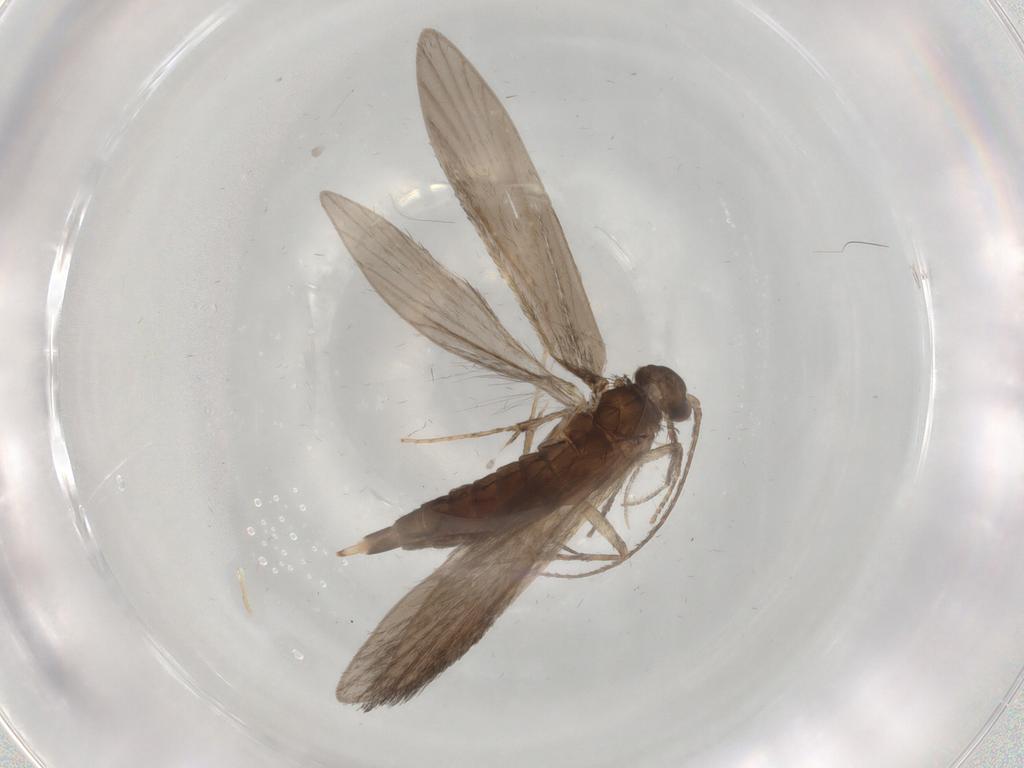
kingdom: Animalia
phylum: Arthropoda
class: Insecta
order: Trichoptera
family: Xiphocentronidae
